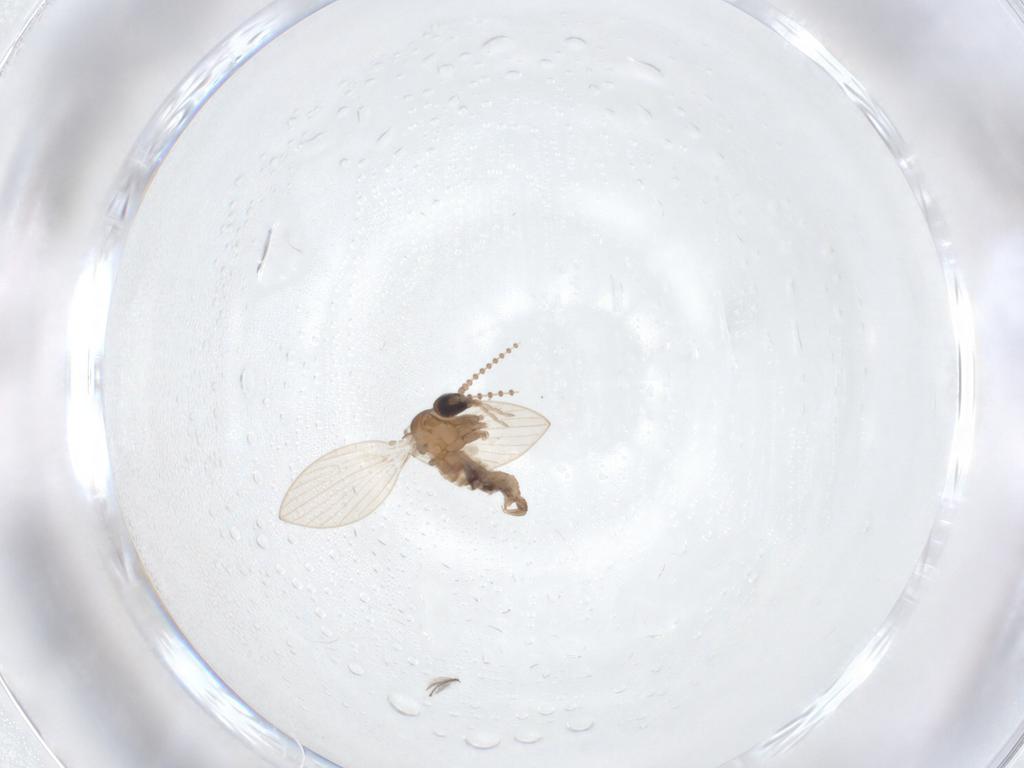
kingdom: Animalia
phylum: Arthropoda
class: Insecta
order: Diptera
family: Psychodidae
